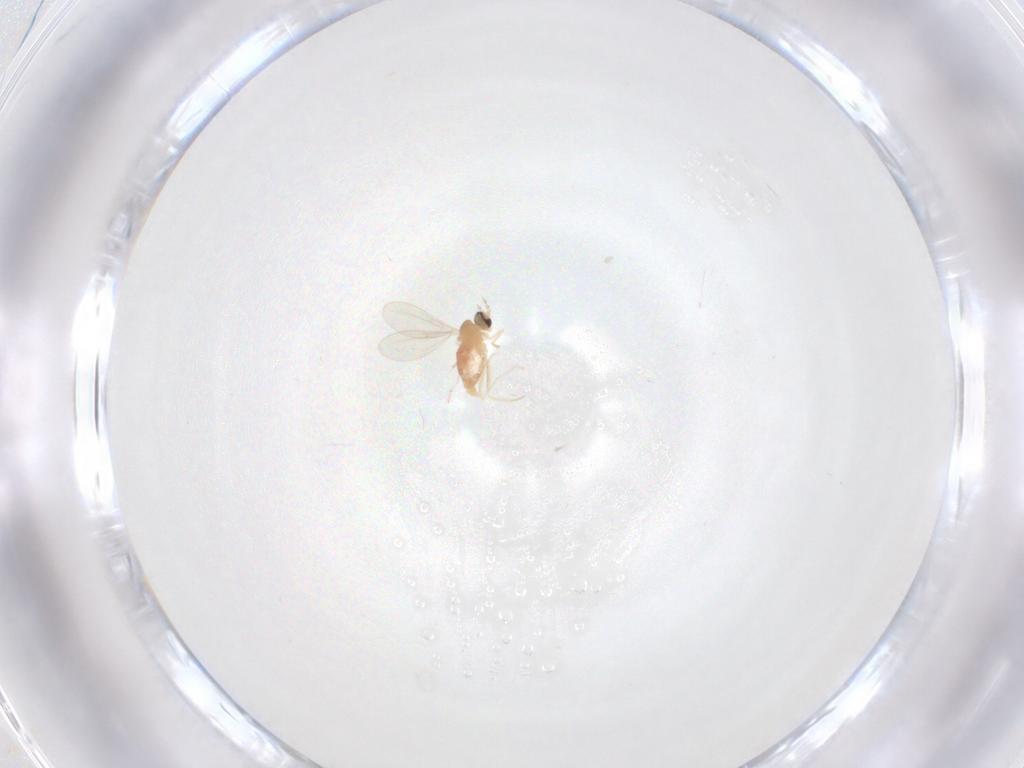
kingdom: Animalia
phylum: Arthropoda
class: Insecta
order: Diptera
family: Cecidomyiidae
